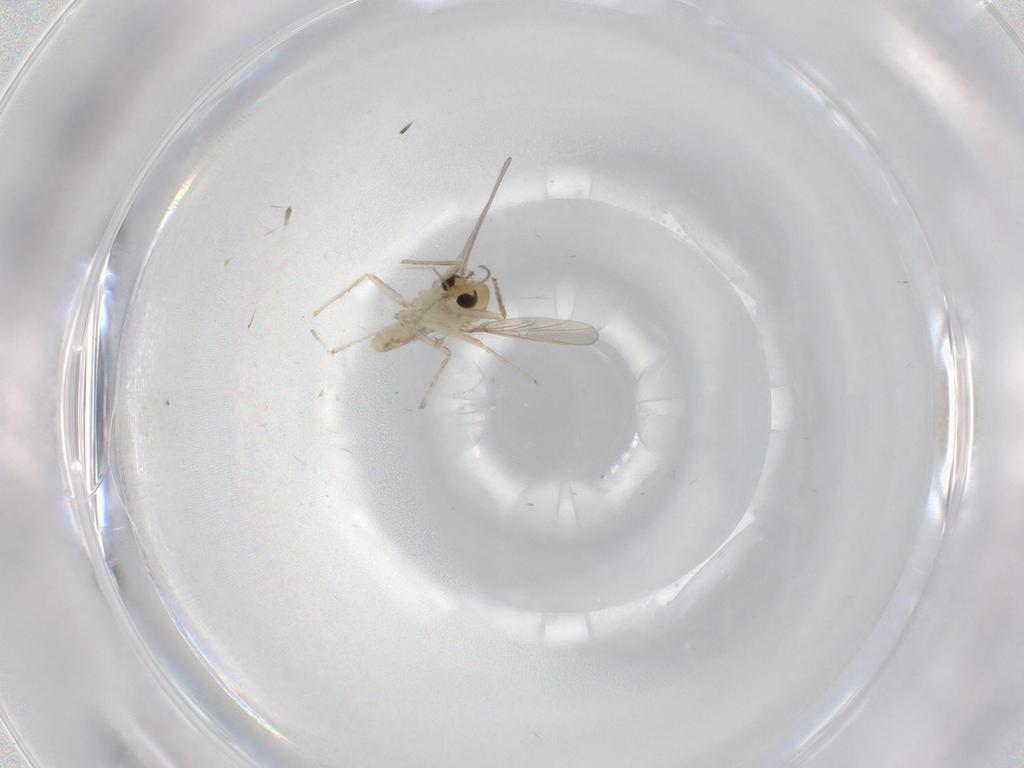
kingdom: Animalia
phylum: Arthropoda
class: Insecta
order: Diptera
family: Chironomidae
